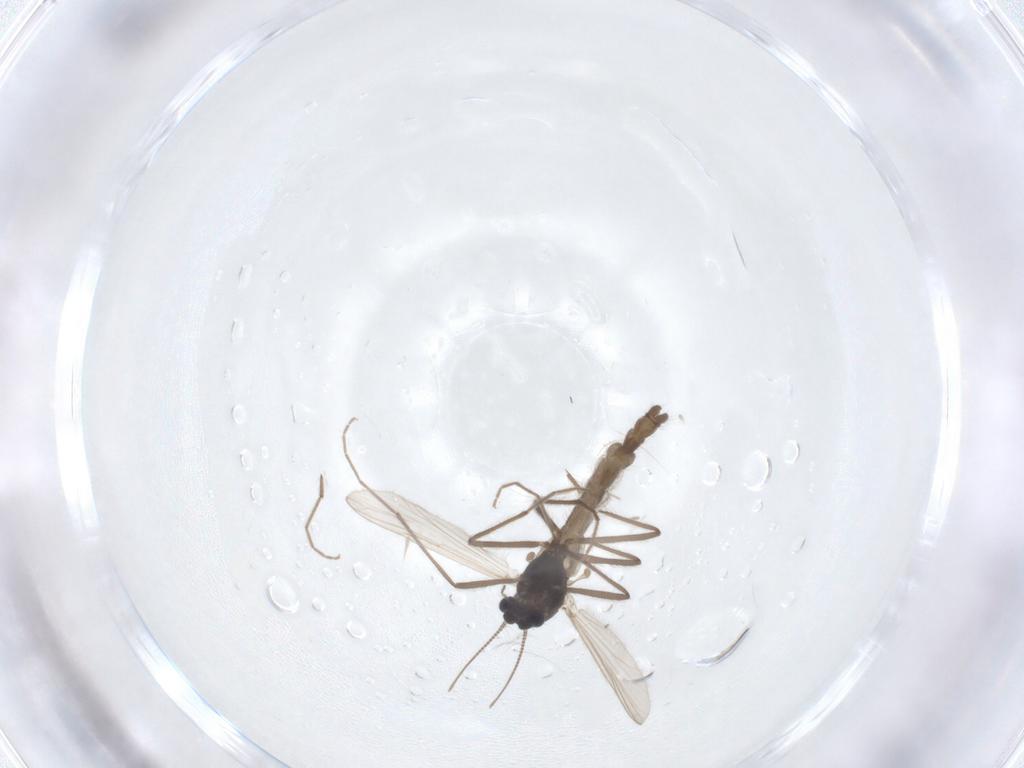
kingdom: Animalia
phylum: Arthropoda
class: Insecta
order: Diptera
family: Chironomidae
